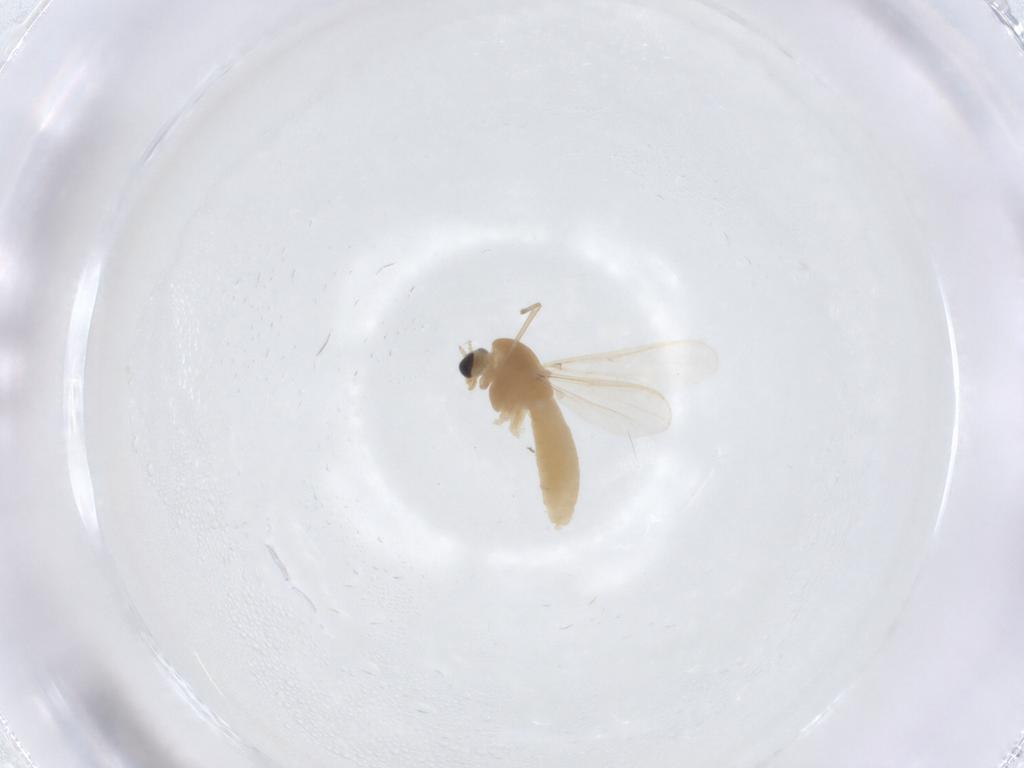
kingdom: Animalia
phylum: Arthropoda
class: Insecta
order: Diptera
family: Chironomidae
